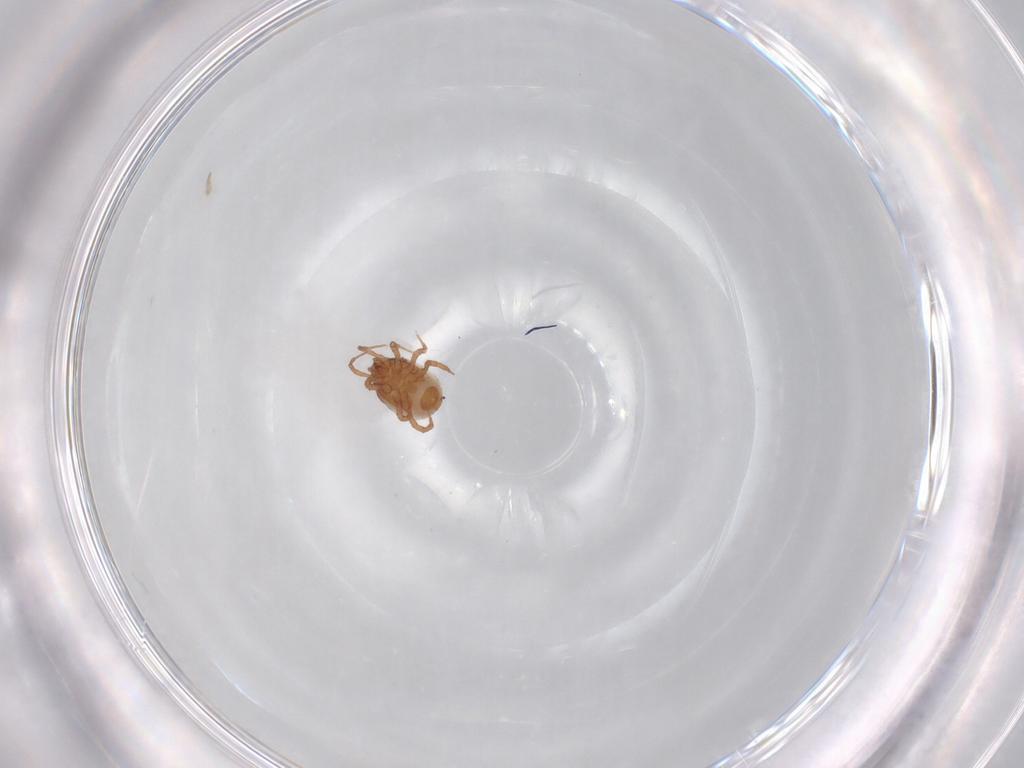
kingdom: Animalia
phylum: Arthropoda
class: Arachnida
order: Mesostigmata
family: Blattisociidae
